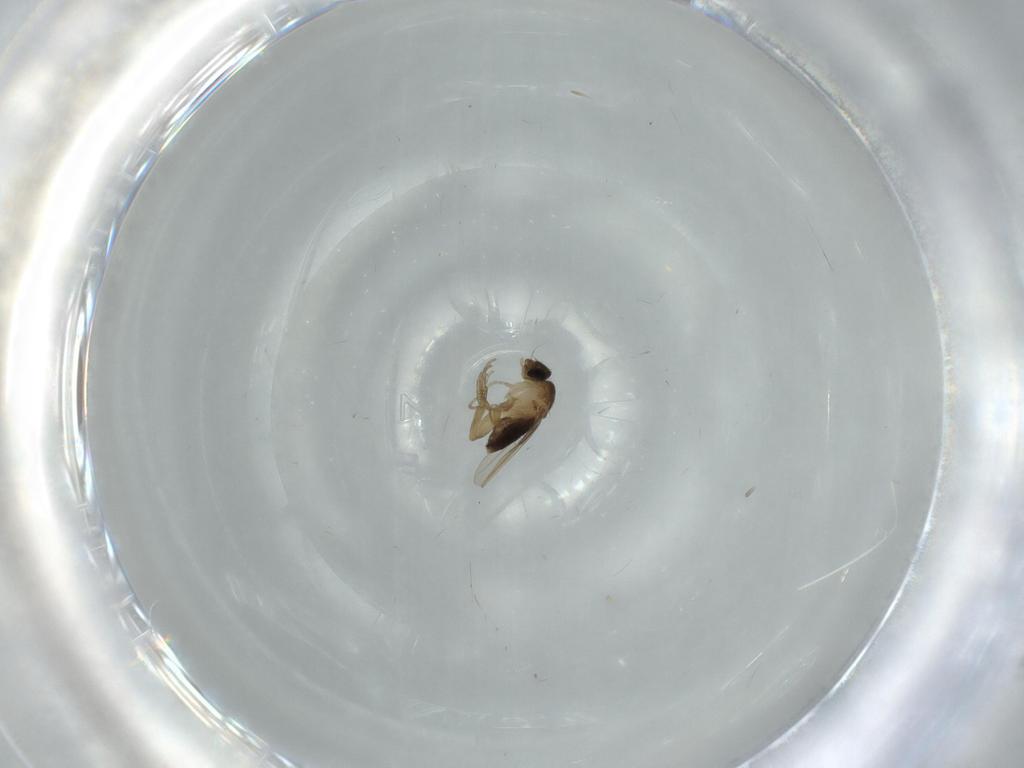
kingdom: Animalia
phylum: Arthropoda
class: Insecta
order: Diptera
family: Phoridae
